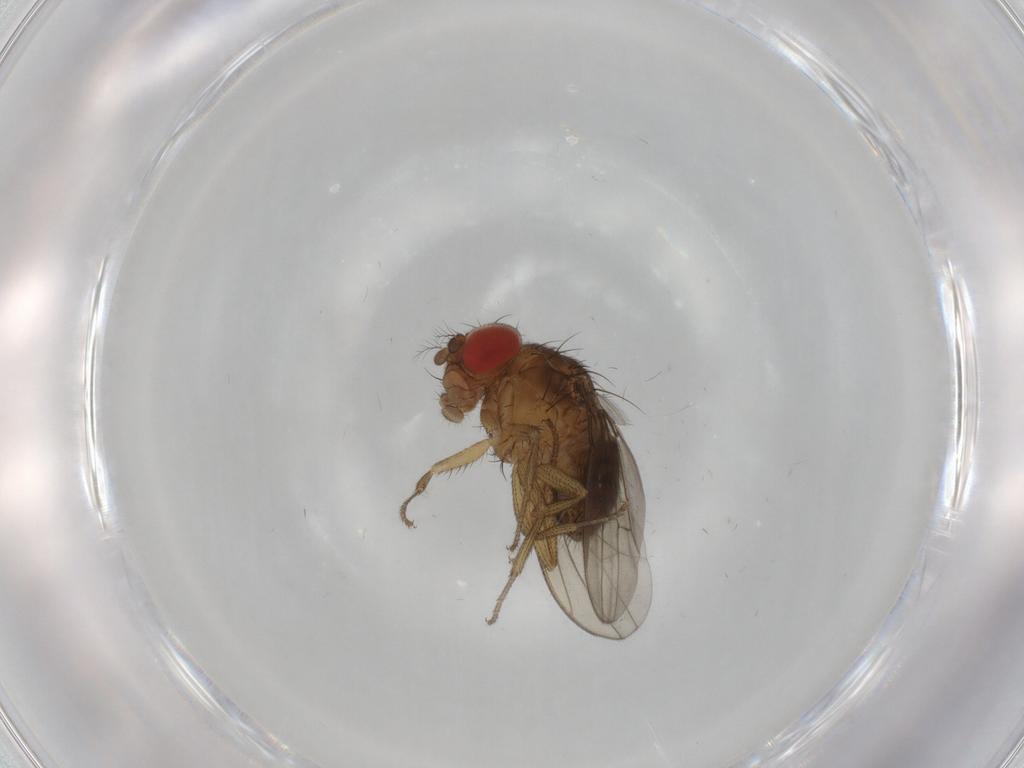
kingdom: Animalia
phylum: Arthropoda
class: Insecta
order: Diptera
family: Drosophilidae
